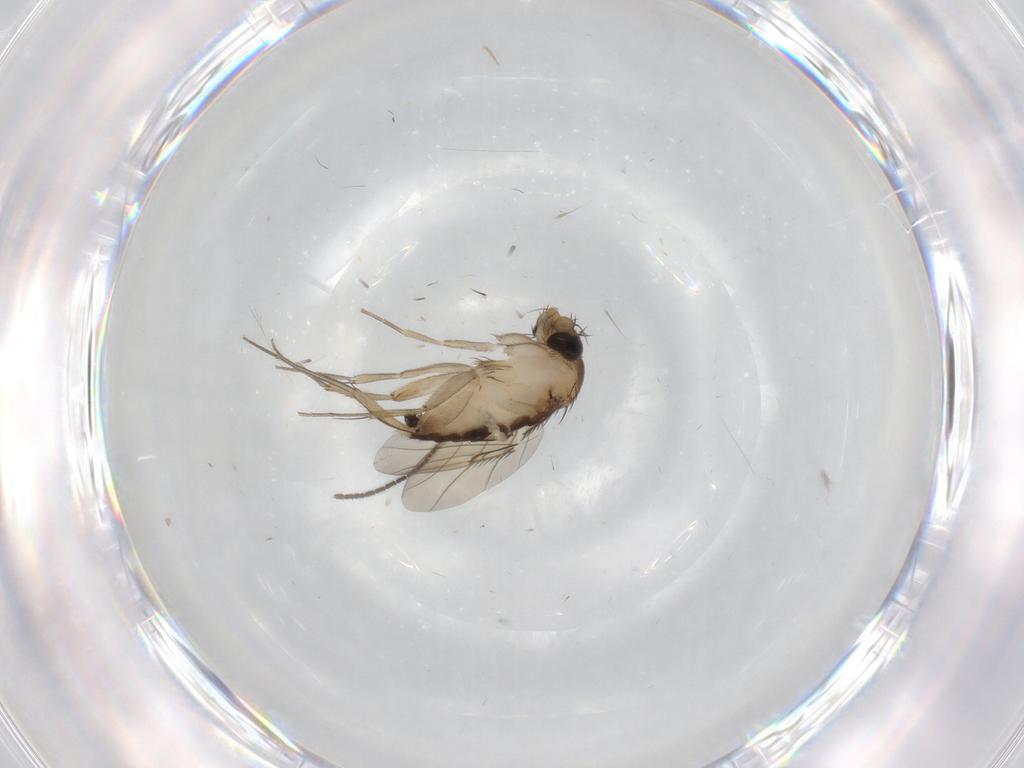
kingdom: Animalia
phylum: Arthropoda
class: Insecta
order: Diptera
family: Phoridae
